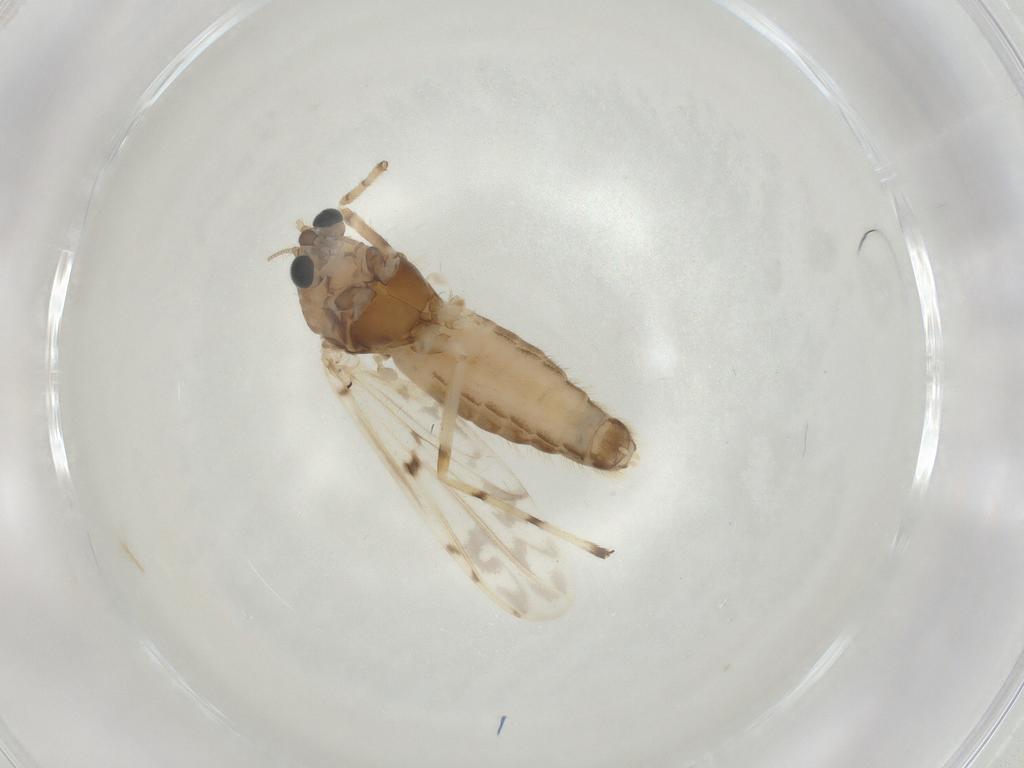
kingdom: Animalia
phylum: Arthropoda
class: Insecta
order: Diptera
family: Chironomidae
